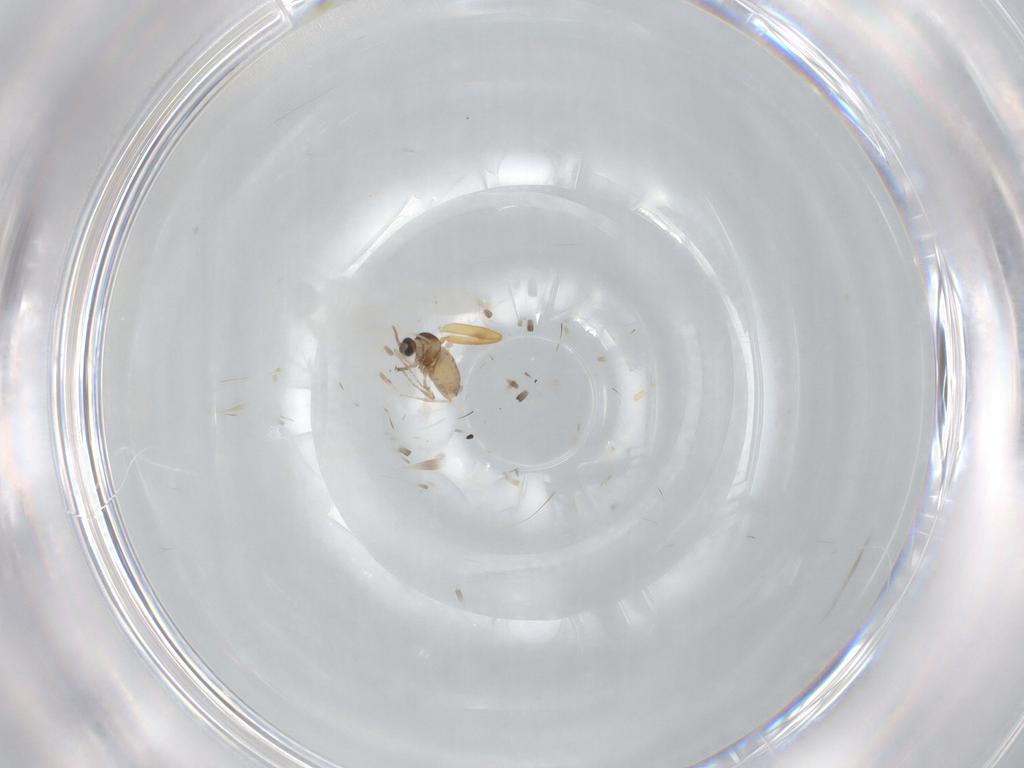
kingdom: Animalia
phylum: Arthropoda
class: Insecta
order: Diptera
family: Chloropidae
